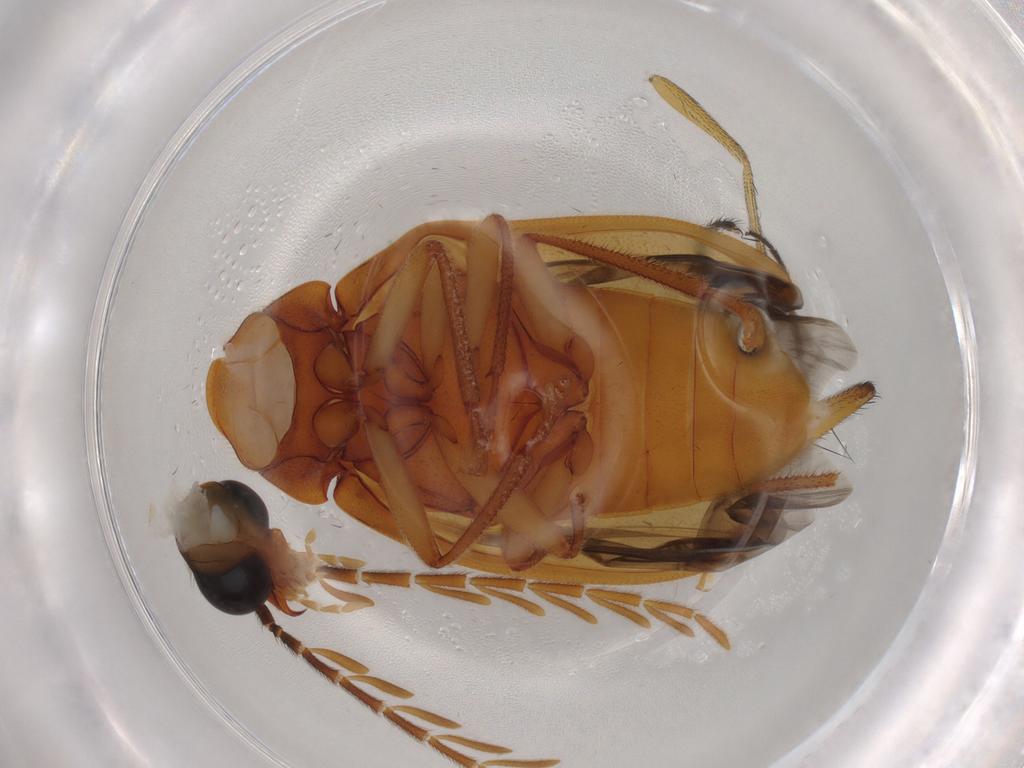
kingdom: Animalia
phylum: Arthropoda
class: Insecta
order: Coleoptera
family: Ptilodactylidae
